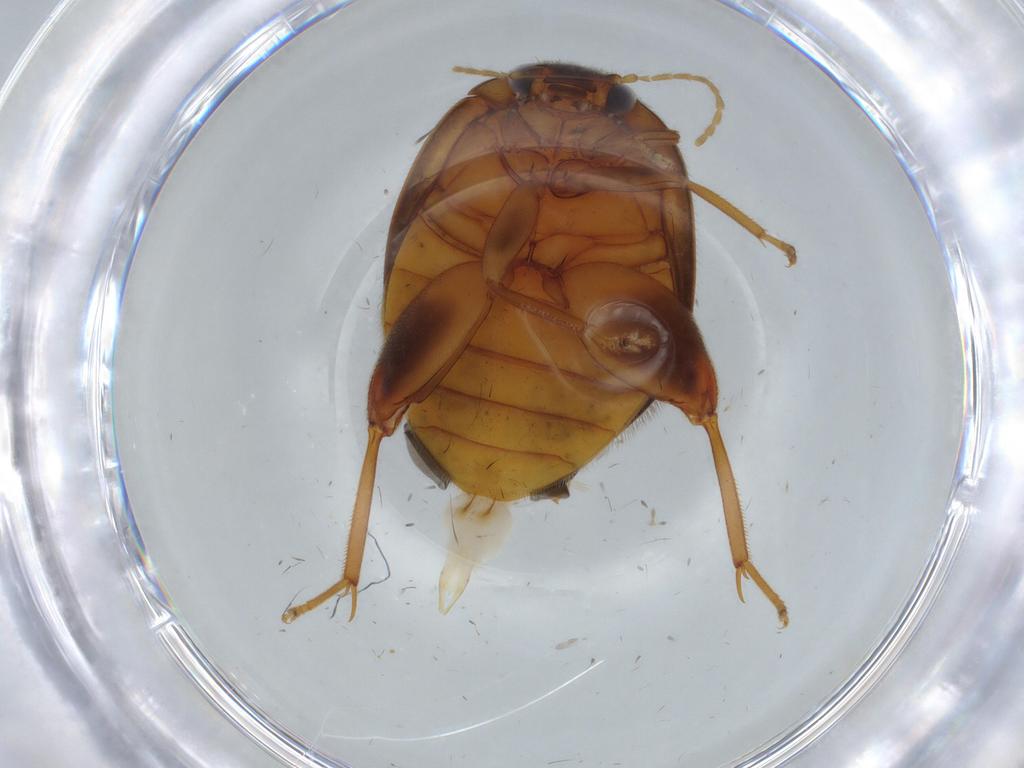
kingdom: Animalia
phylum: Arthropoda
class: Insecta
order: Coleoptera
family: Scirtidae
